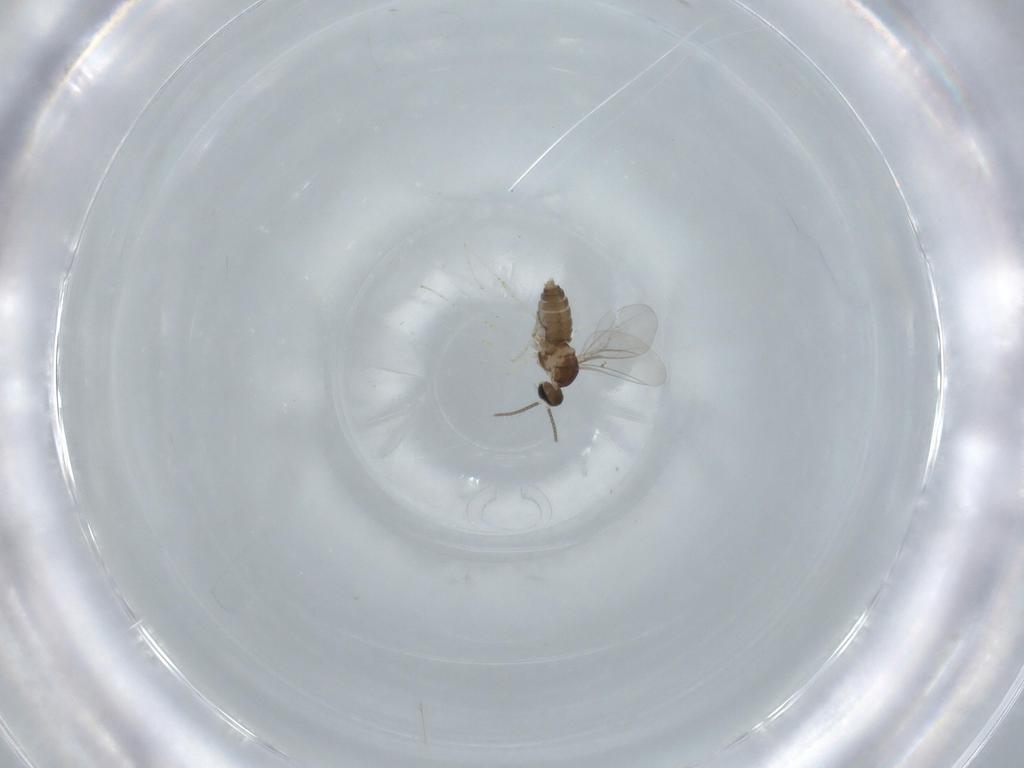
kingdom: Animalia
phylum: Arthropoda
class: Insecta
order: Diptera
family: Cecidomyiidae
